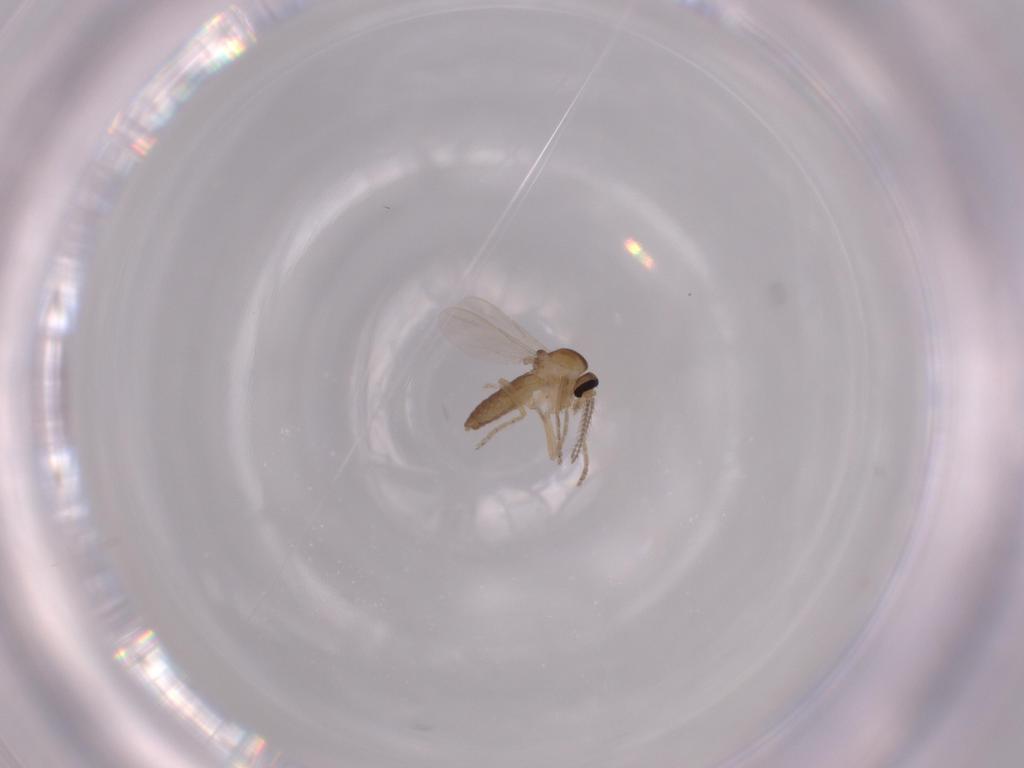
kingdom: Animalia
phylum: Arthropoda
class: Insecta
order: Diptera
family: Ceratopogonidae
